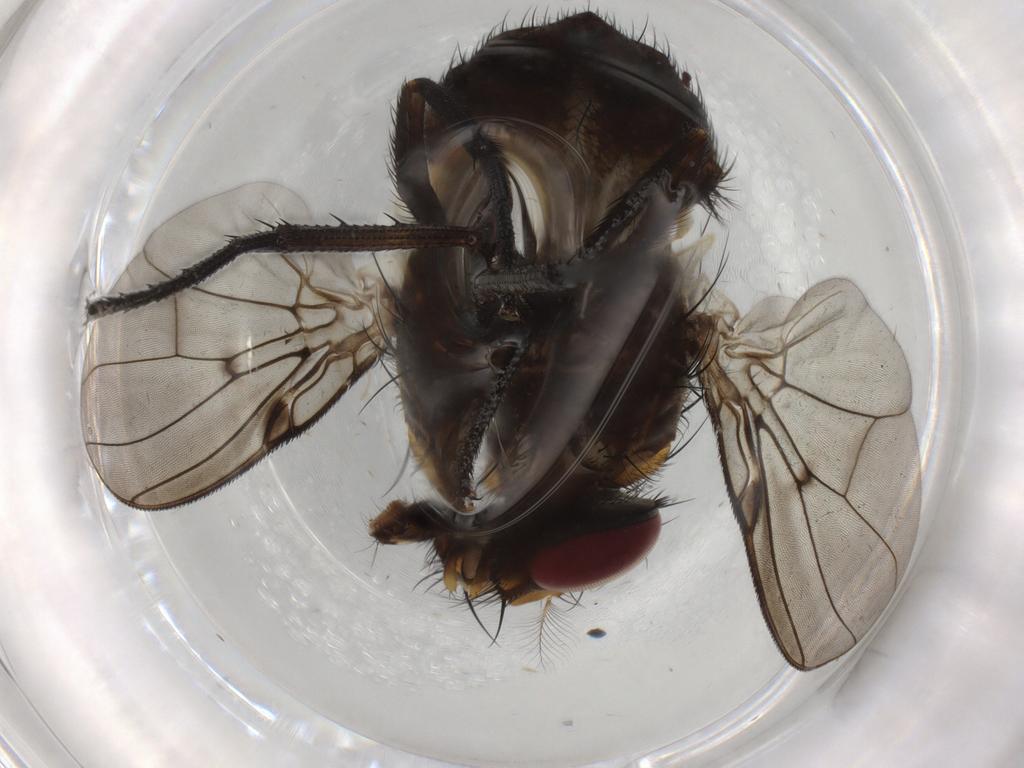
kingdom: Animalia
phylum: Arthropoda
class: Insecta
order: Diptera
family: Muscidae
